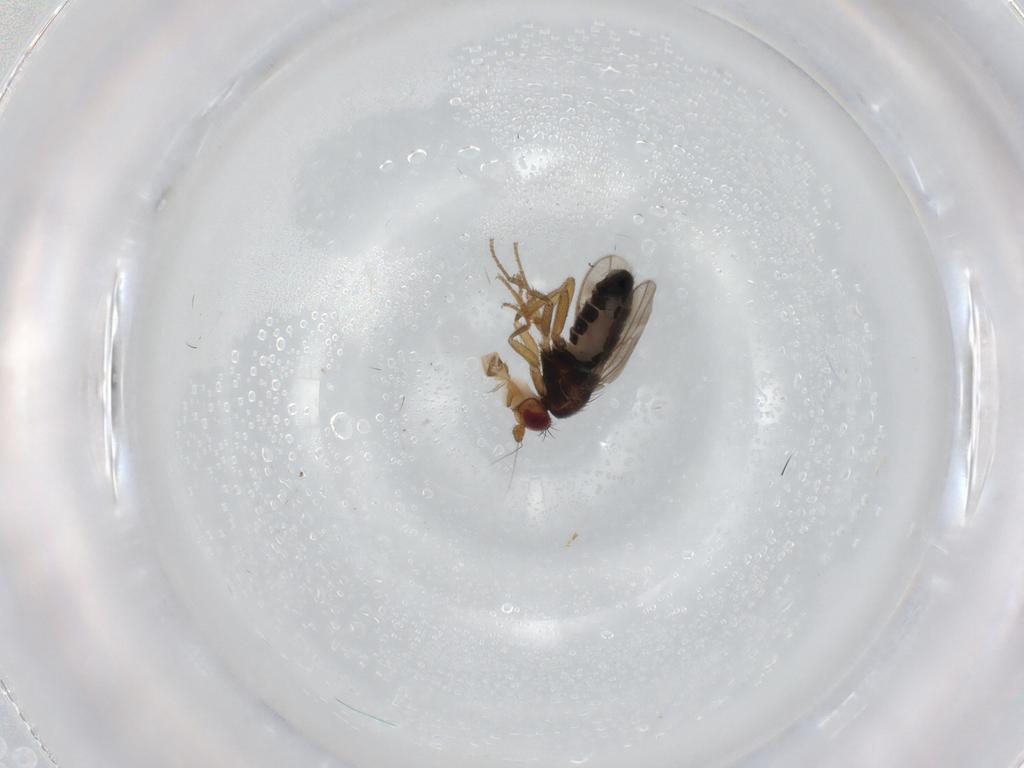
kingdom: Animalia
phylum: Arthropoda
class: Insecta
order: Diptera
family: Sphaeroceridae
